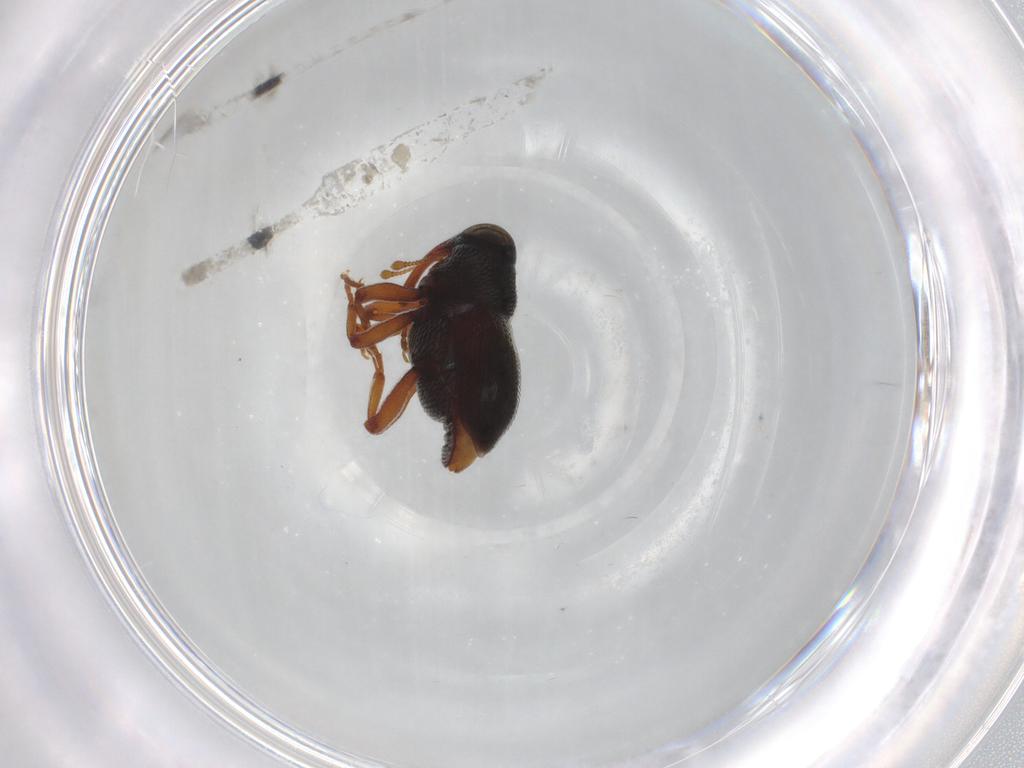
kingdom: Animalia
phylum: Arthropoda
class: Insecta
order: Coleoptera
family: Curculionidae
